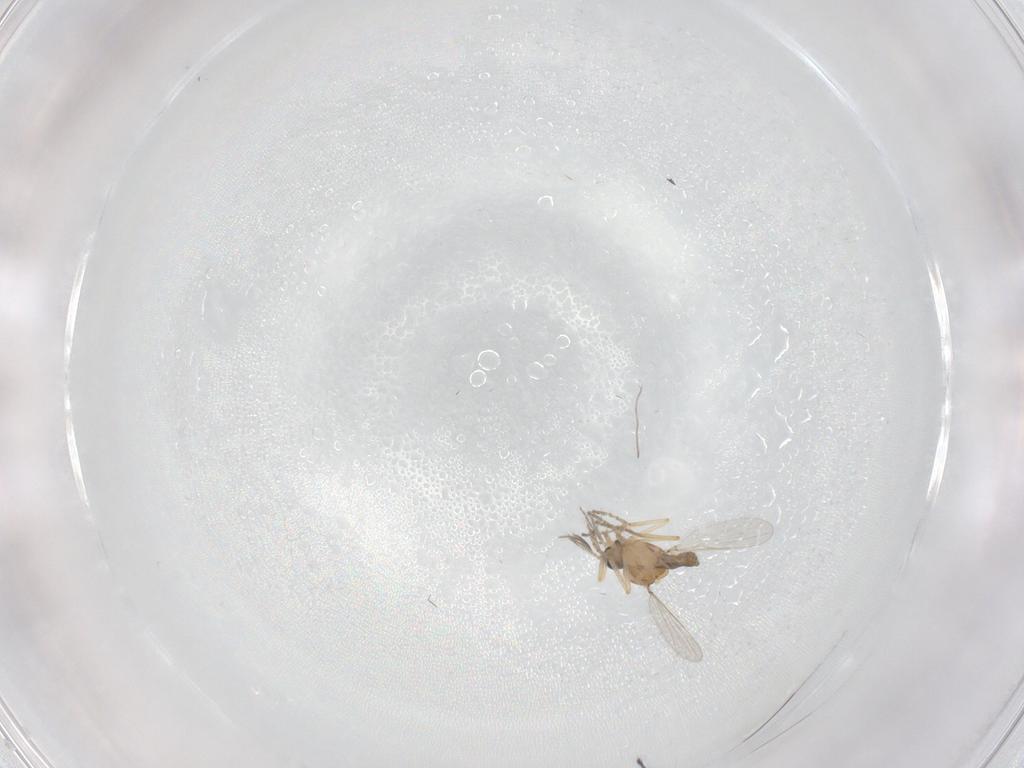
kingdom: Animalia
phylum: Arthropoda
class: Insecta
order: Diptera
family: Ceratopogonidae
